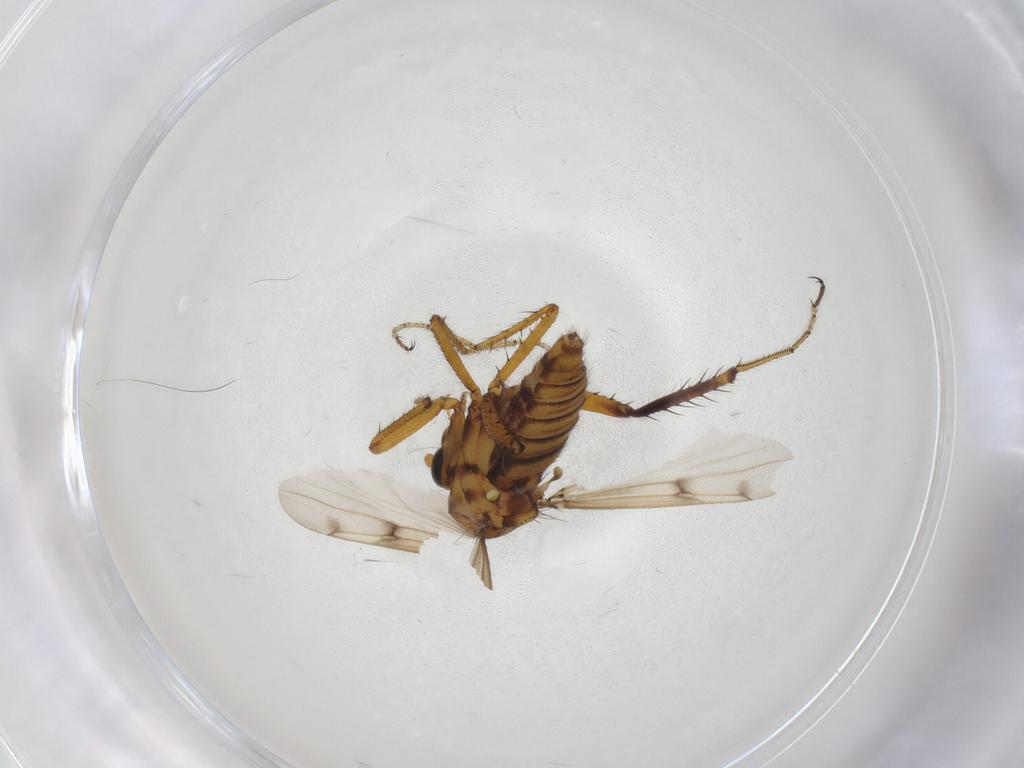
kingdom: Animalia
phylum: Arthropoda
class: Insecta
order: Diptera
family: Ceratopogonidae
